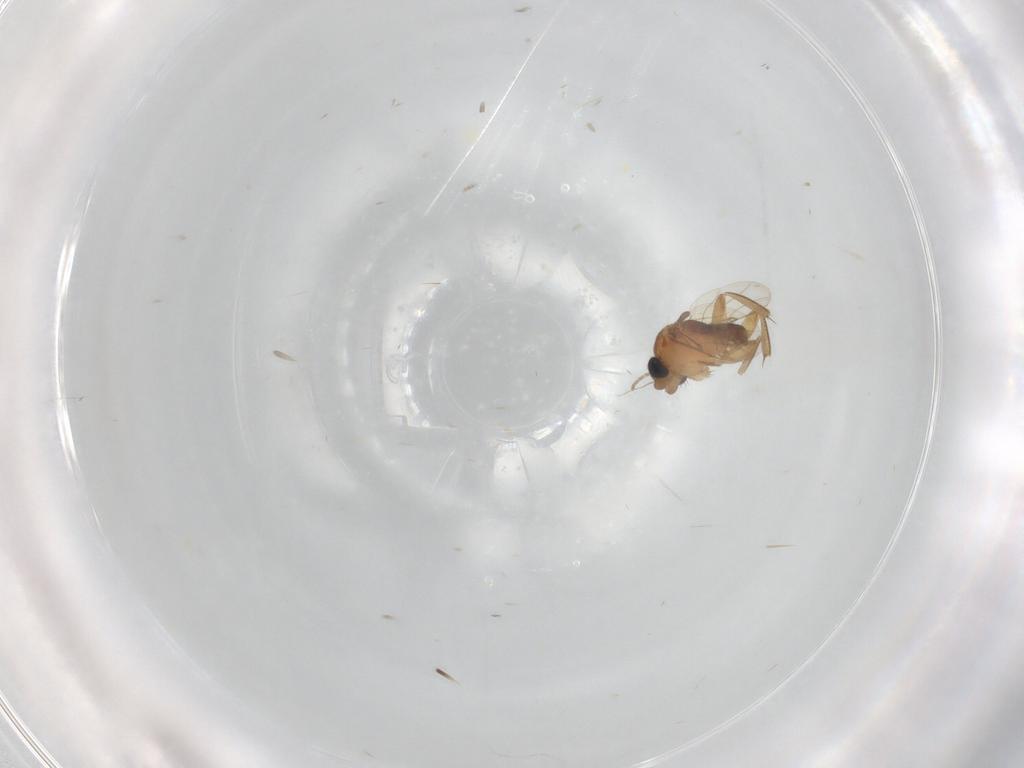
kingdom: Animalia
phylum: Arthropoda
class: Insecta
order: Diptera
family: Phoridae
